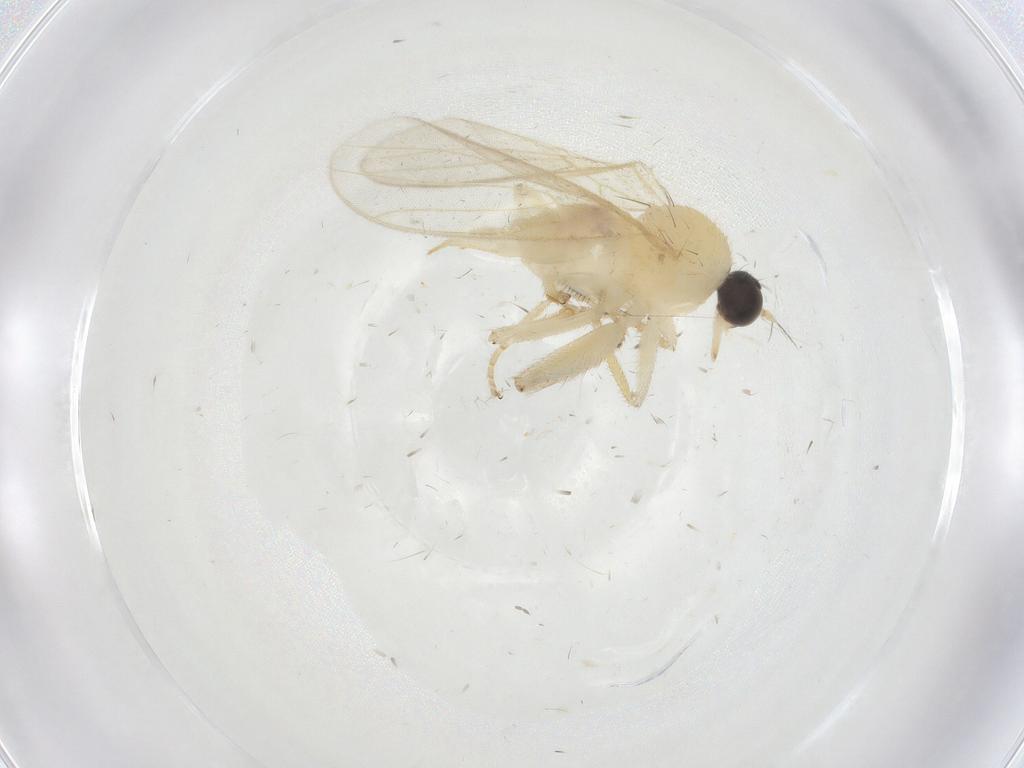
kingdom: Animalia
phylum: Arthropoda
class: Insecta
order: Diptera
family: Hybotidae
